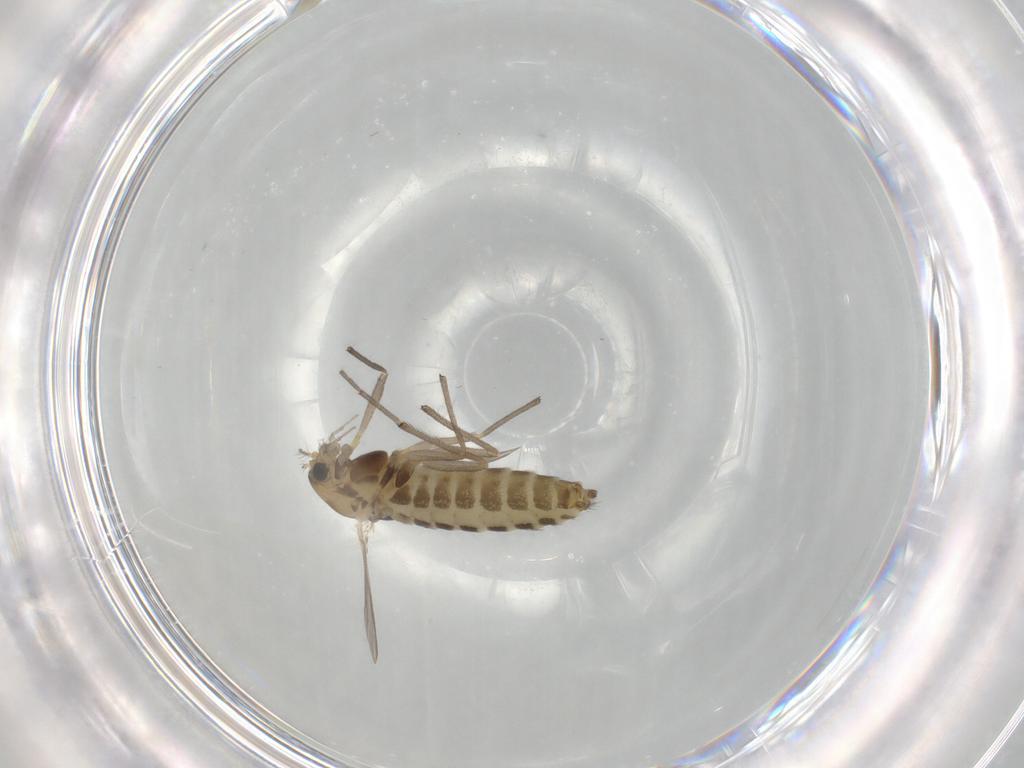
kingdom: Animalia
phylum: Arthropoda
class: Insecta
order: Diptera
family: Chironomidae
